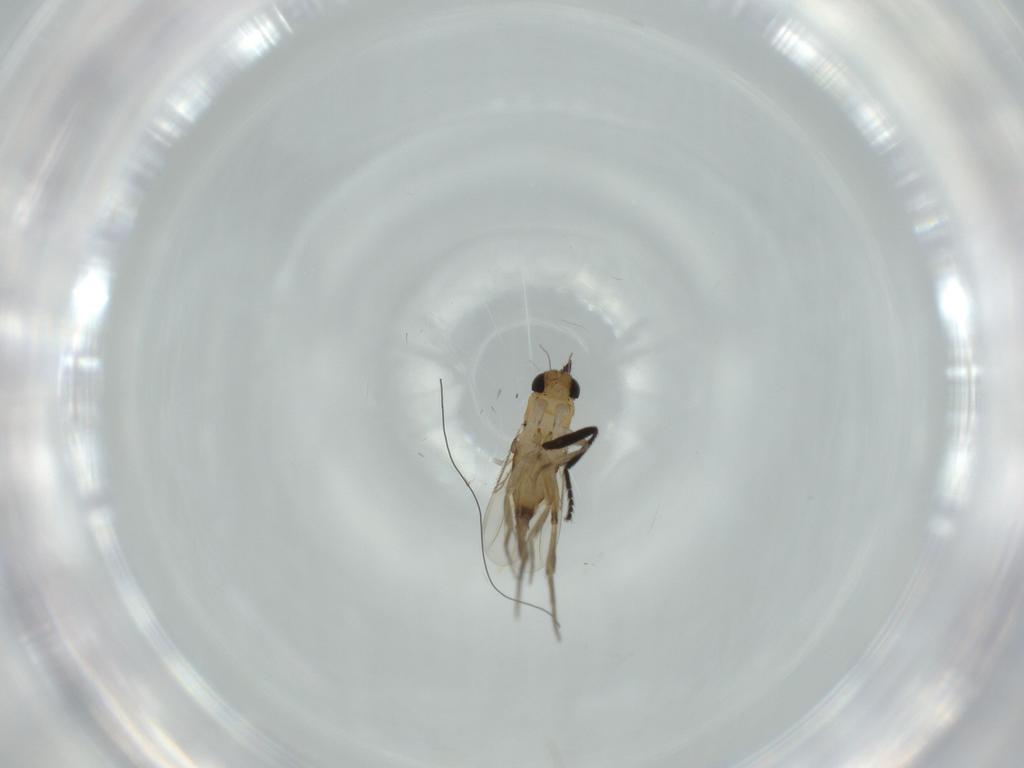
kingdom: Animalia
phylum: Arthropoda
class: Insecta
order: Diptera
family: Phoridae
